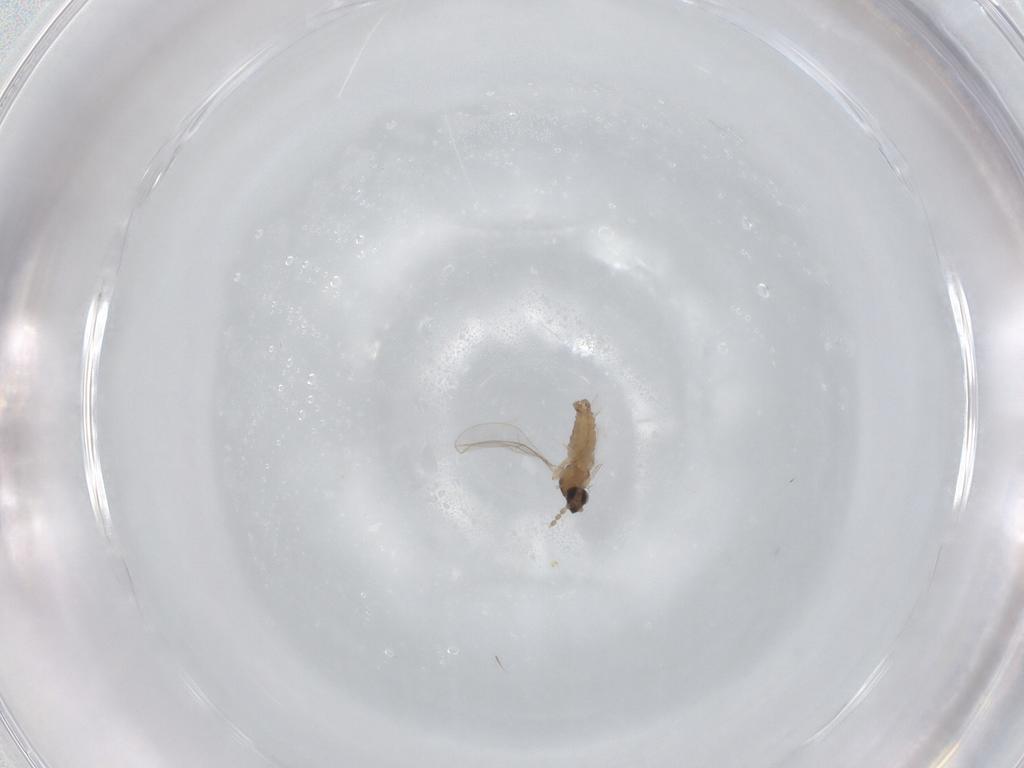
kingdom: Animalia
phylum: Arthropoda
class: Insecta
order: Diptera
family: Cecidomyiidae
